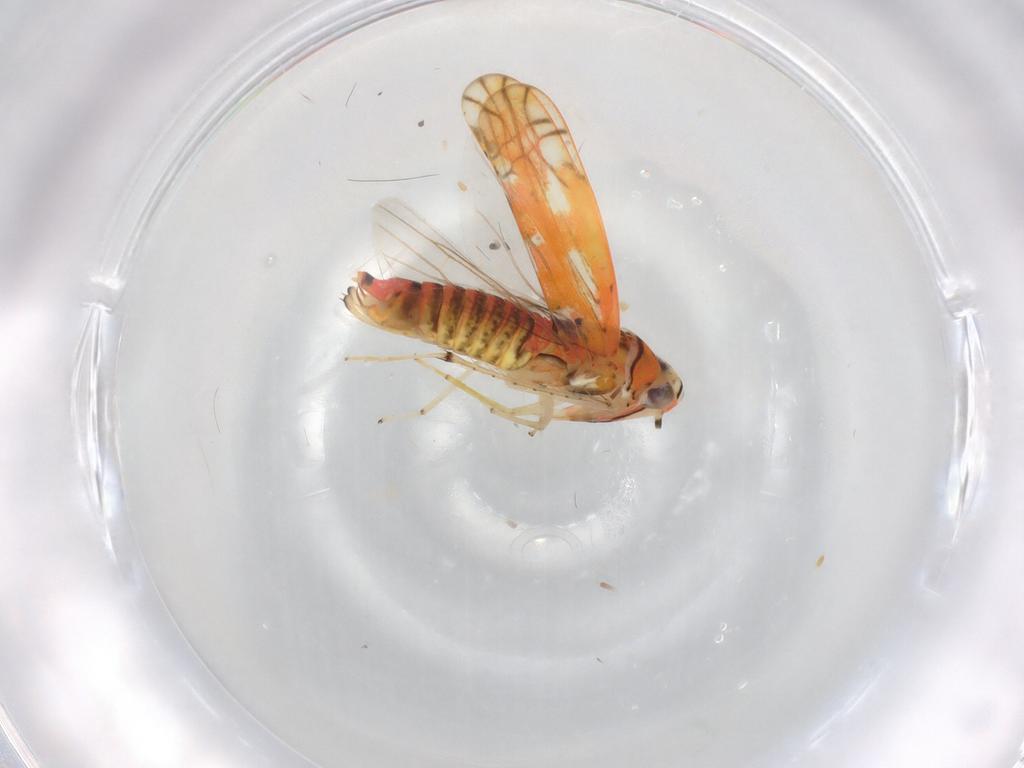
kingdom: Animalia
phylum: Arthropoda
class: Insecta
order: Hemiptera
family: Cicadellidae
